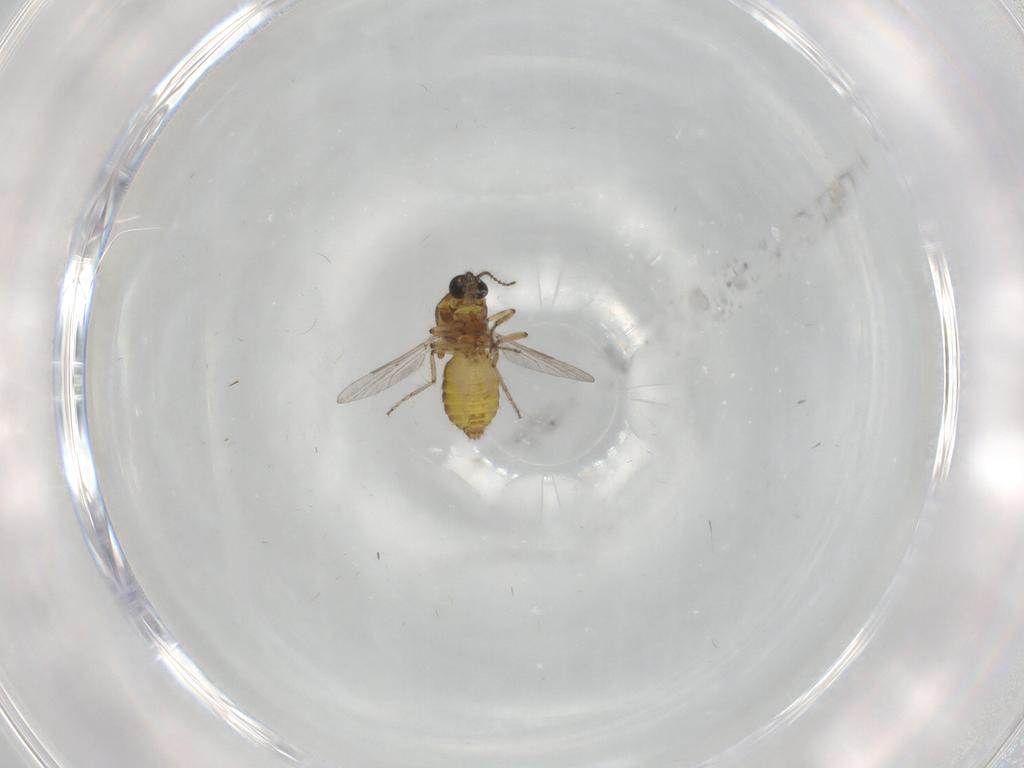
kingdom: Animalia
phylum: Arthropoda
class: Insecta
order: Diptera
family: Ceratopogonidae
